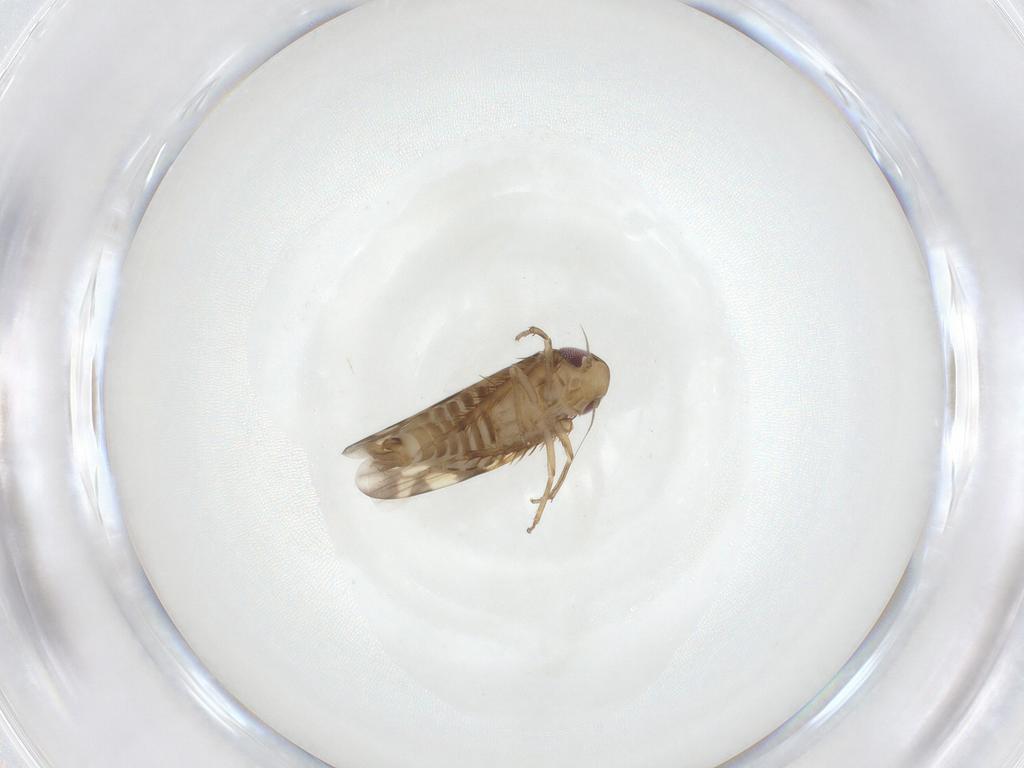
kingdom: Animalia
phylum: Arthropoda
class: Insecta
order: Hemiptera
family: Cicadellidae
